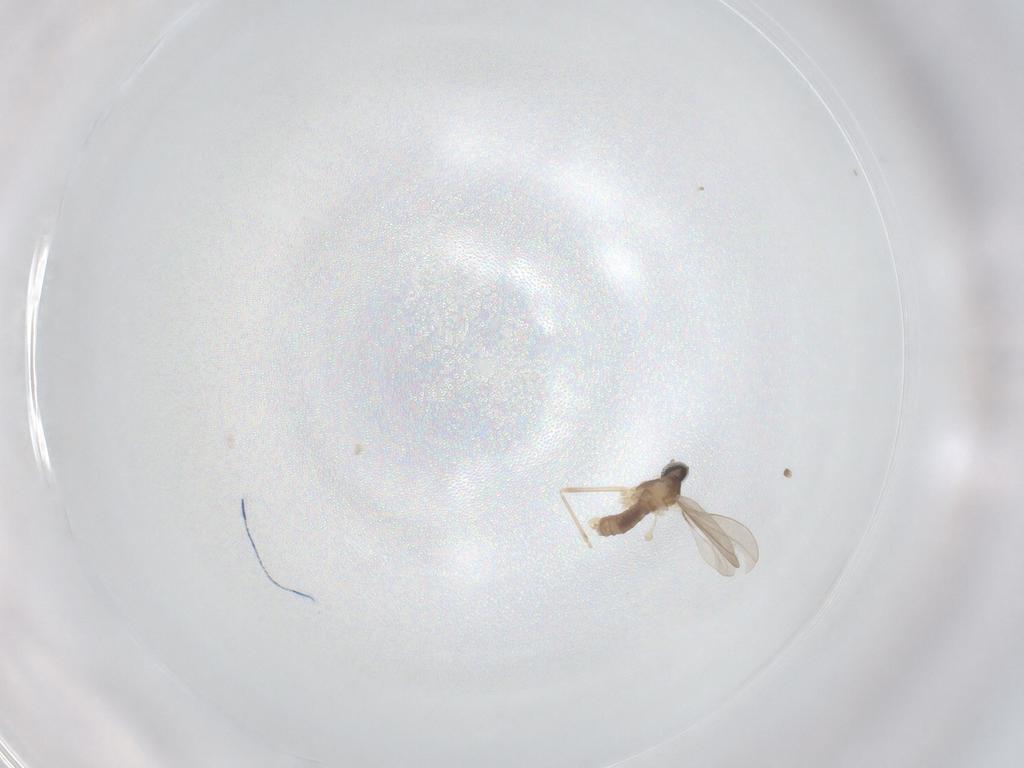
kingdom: Animalia
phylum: Arthropoda
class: Insecta
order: Diptera
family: Cecidomyiidae
